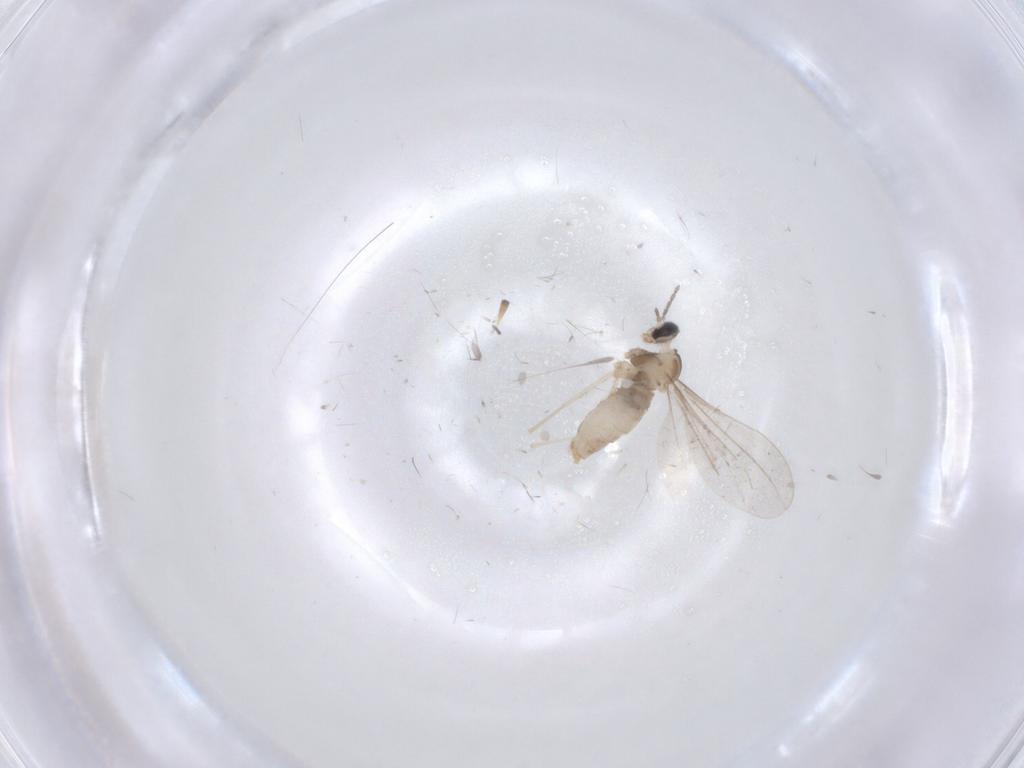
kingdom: Animalia
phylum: Arthropoda
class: Insecta
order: Diptera
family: Cecidomyiidae
